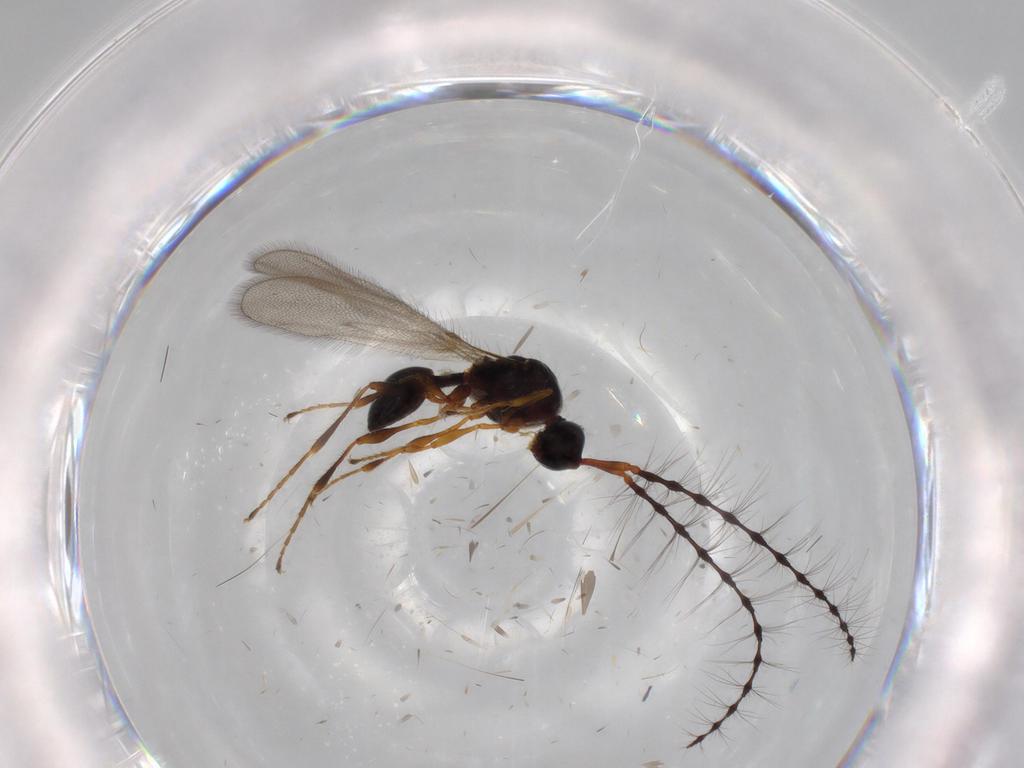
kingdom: Animalia
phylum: Arthropoda
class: Insecta
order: Hymenoptera
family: Diapriidae
